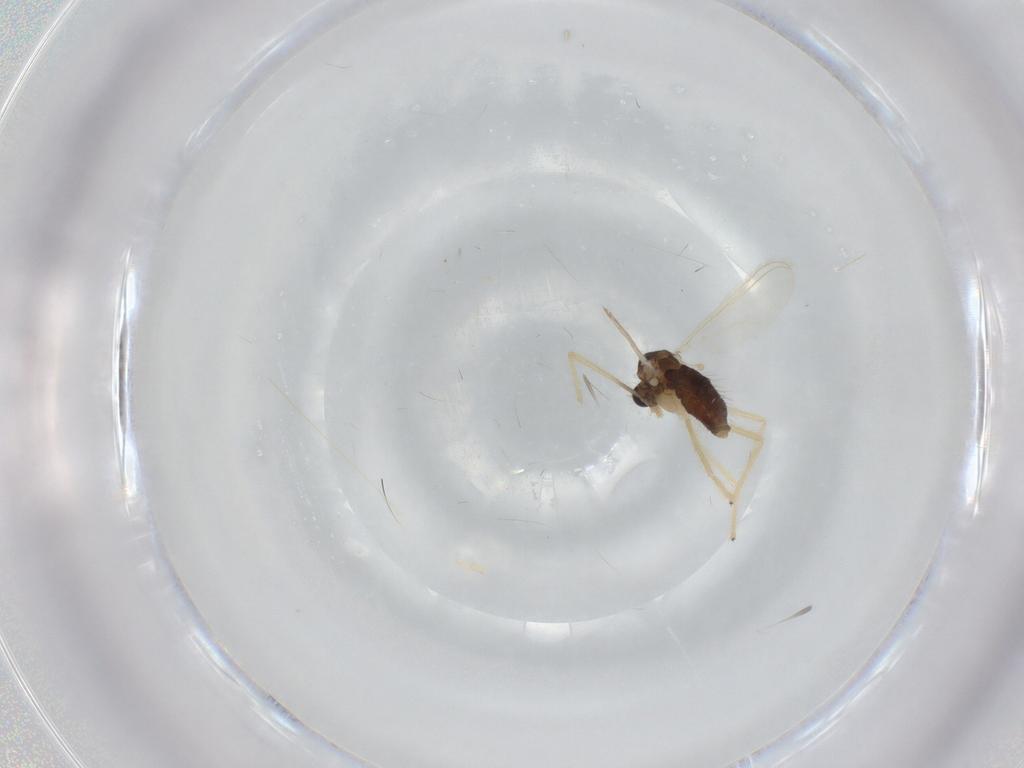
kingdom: Animalia
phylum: Arthropoda
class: Insecta
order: Diptera
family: Chironomidae
